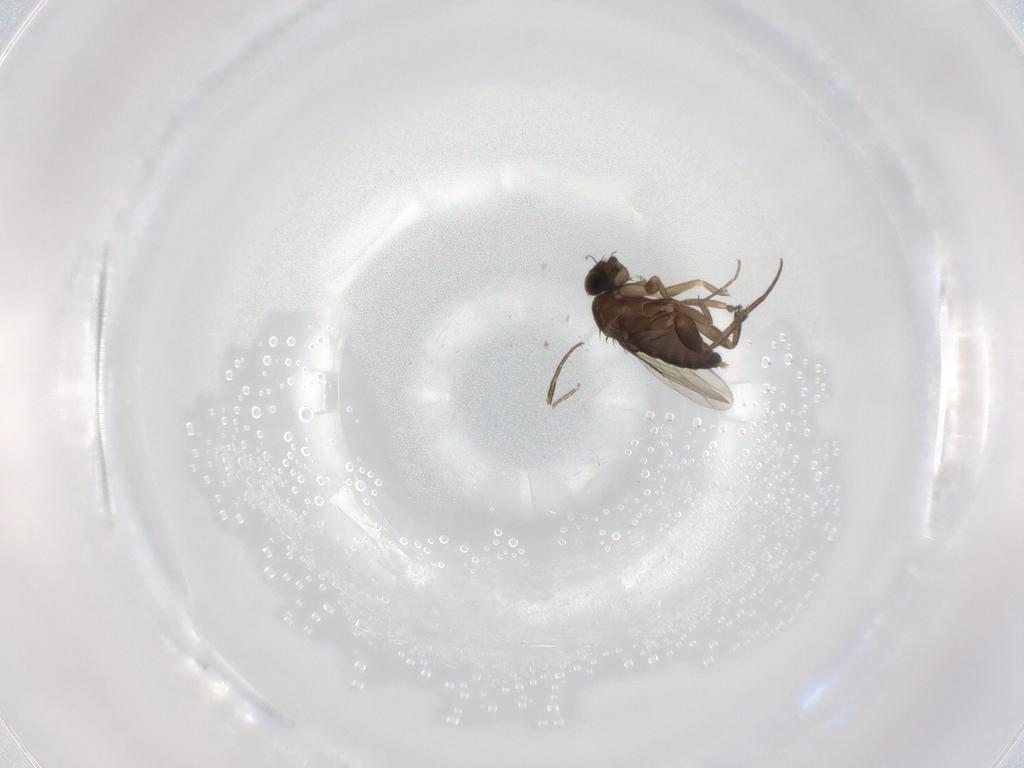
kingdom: Animalia
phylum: Arthropoda
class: Insecta
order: Diptera
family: Phoridae
